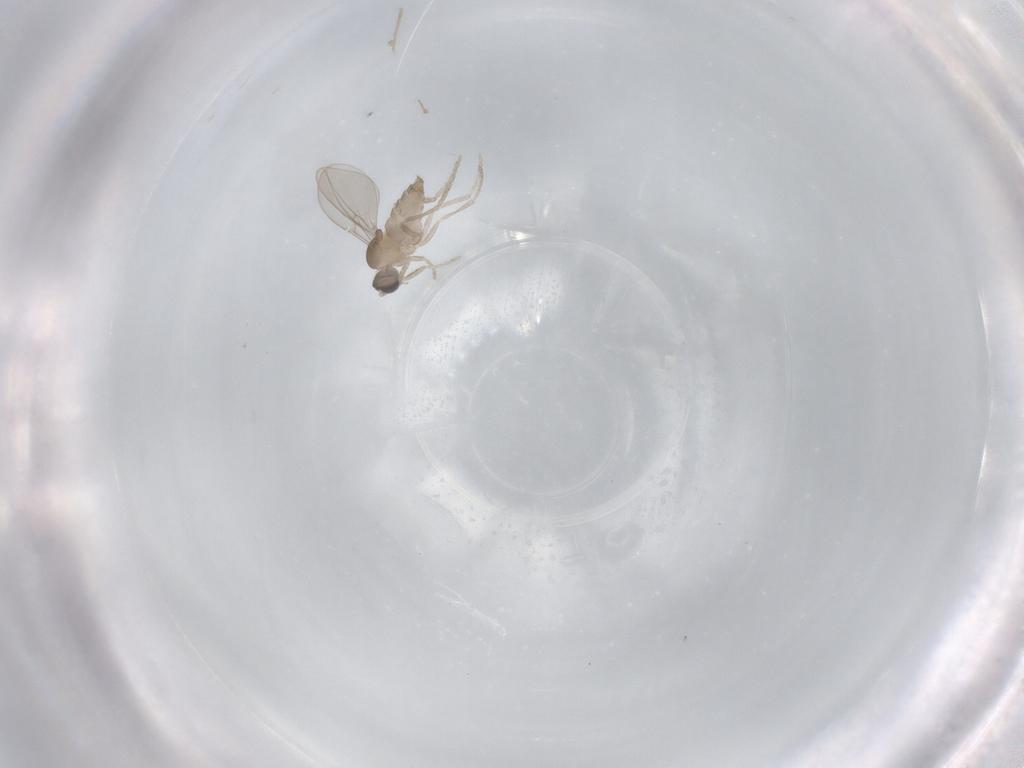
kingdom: Animalia
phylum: Arthropoda
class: Insecta
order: Diptera
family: Cecidomyiidae
